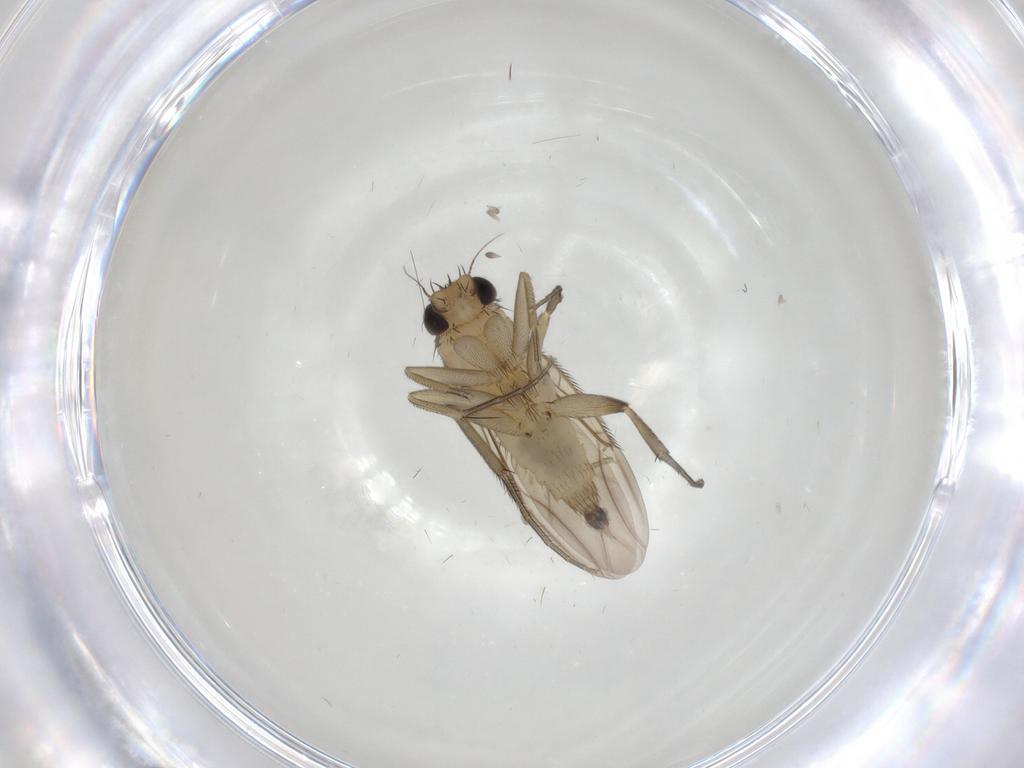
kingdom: Animalia
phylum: Arthropoda
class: Insecta
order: Diptera
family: Phoridae
